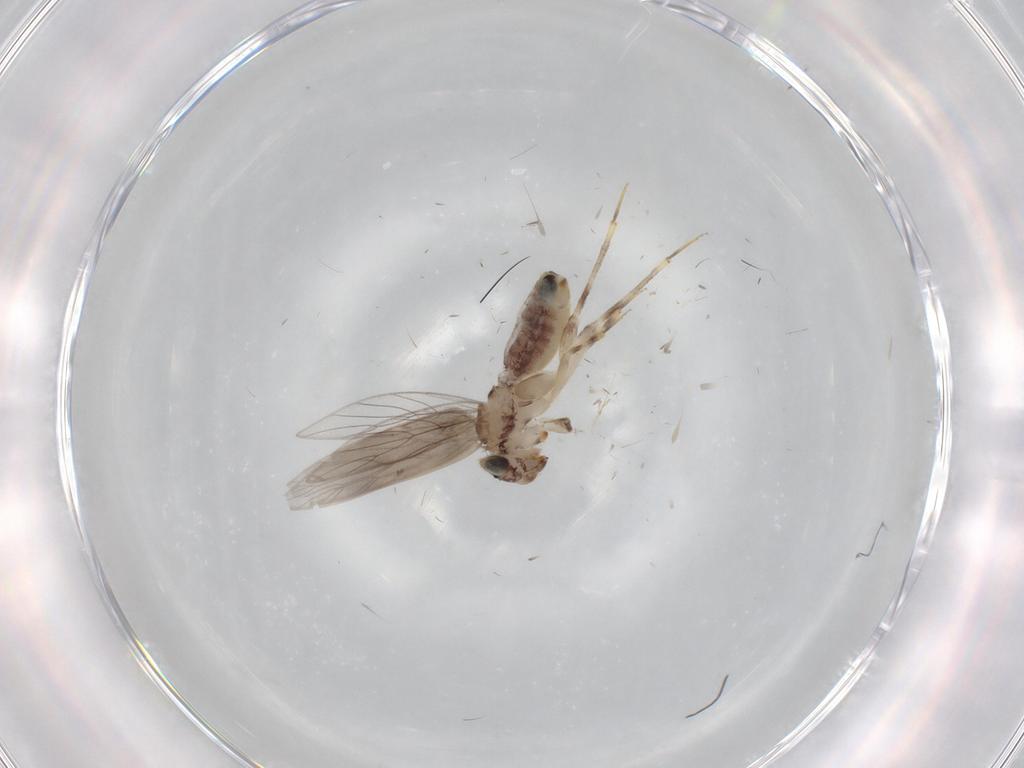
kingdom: Animalia
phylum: Arthropoda
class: Insecta
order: Psocodea
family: Lepidopsocidae
